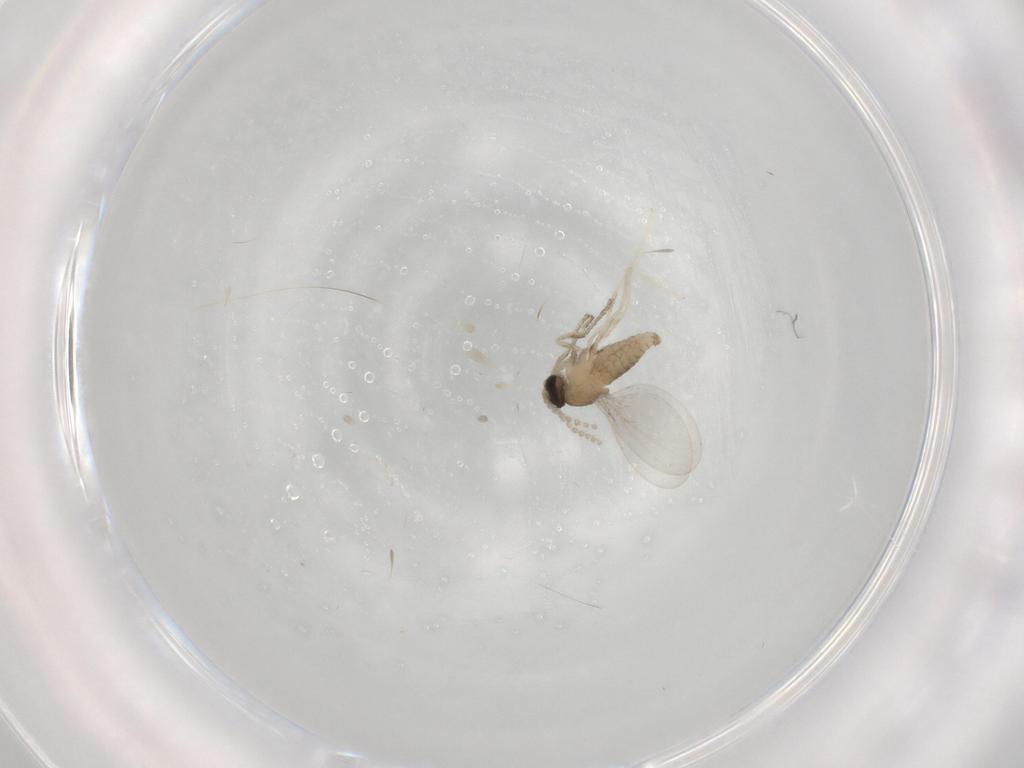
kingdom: Animalia
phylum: Arthropoda
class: Insecta
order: Diptera
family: Cecidomyiidae
